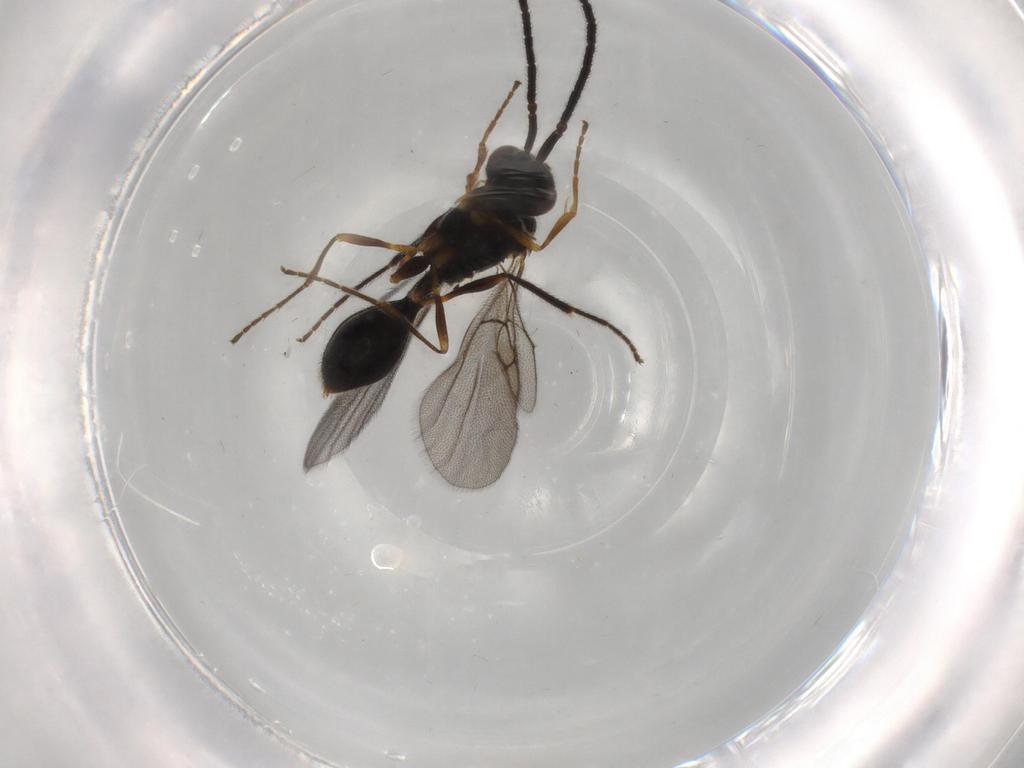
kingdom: Animalia
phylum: Arthropoda
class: Insecta
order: Hymenoptera
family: Diapriidae
